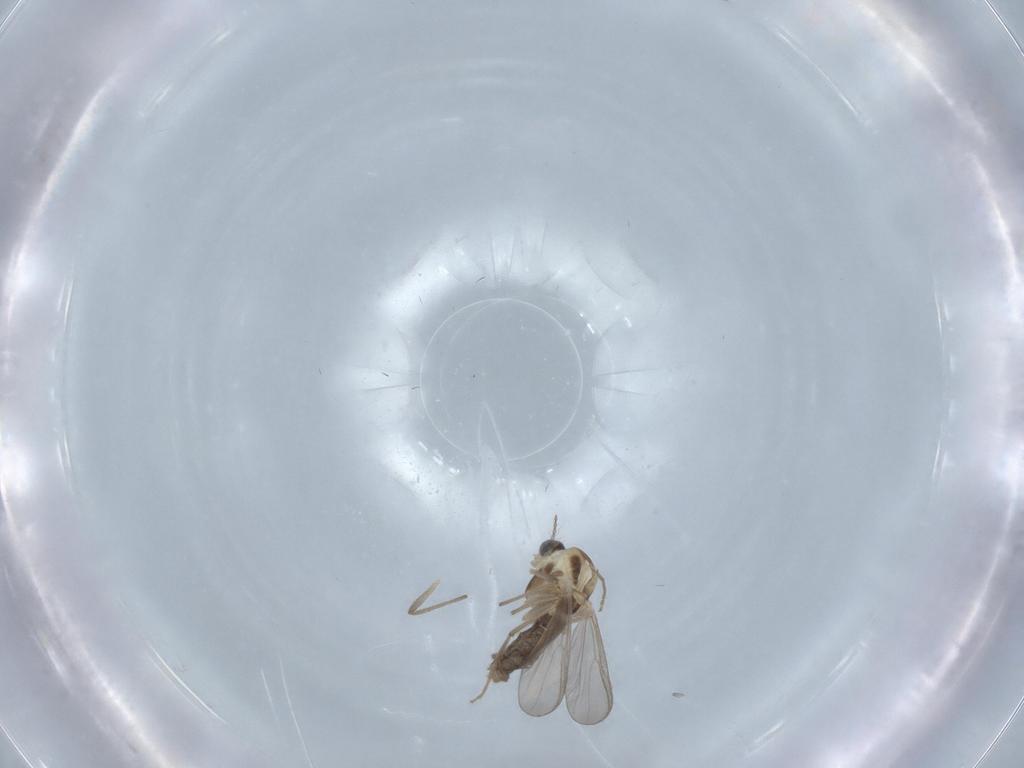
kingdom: Animalia
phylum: Arthropoda
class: Insecta
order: Diptera
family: Chironomidae
